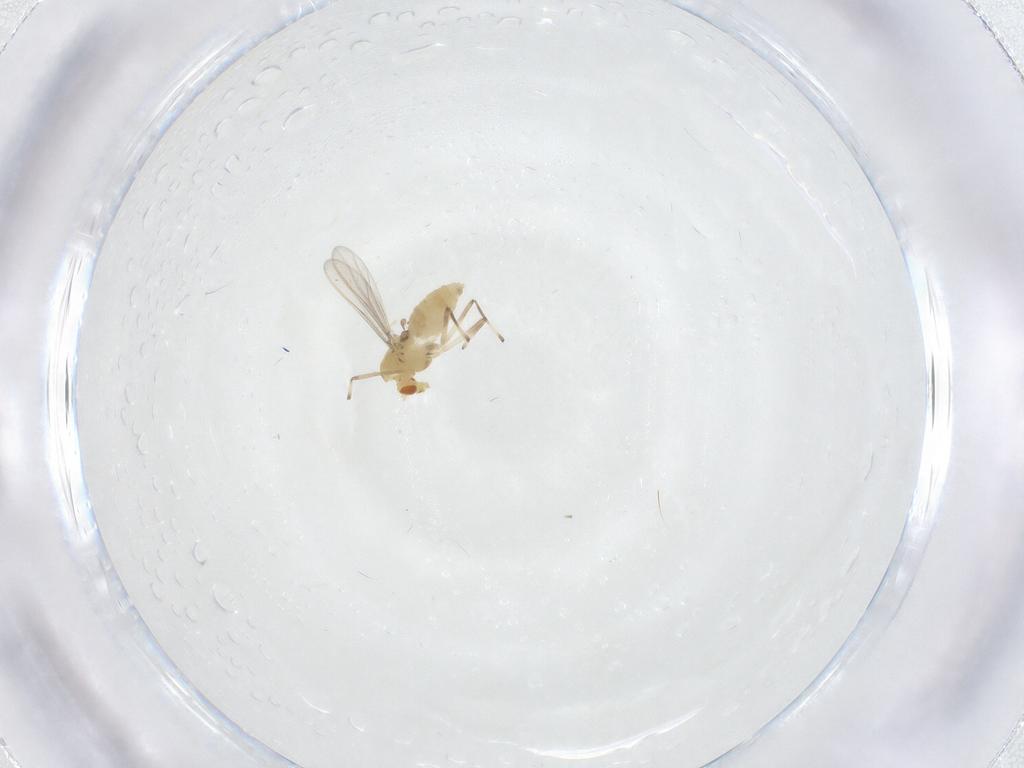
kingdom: Animalia
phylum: Arthropoda
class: Insecta
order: Diptera
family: Chironomidae
